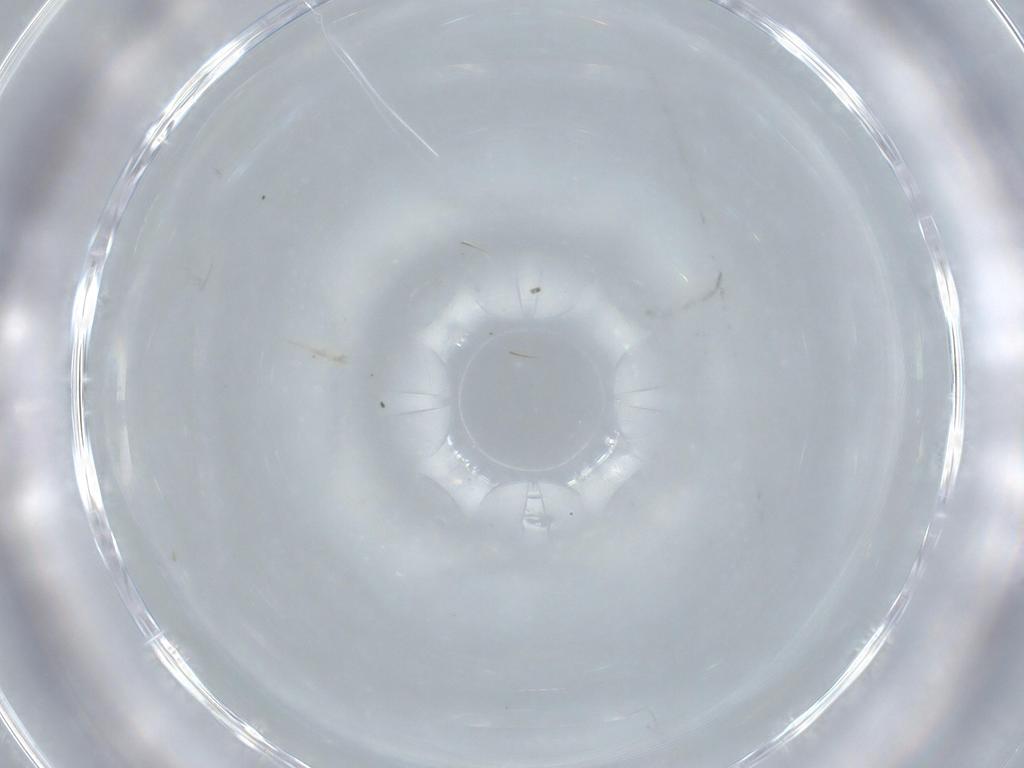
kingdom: Animalia
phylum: Arthropoda
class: Insecta
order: Diptera
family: Cecidomyiidae
